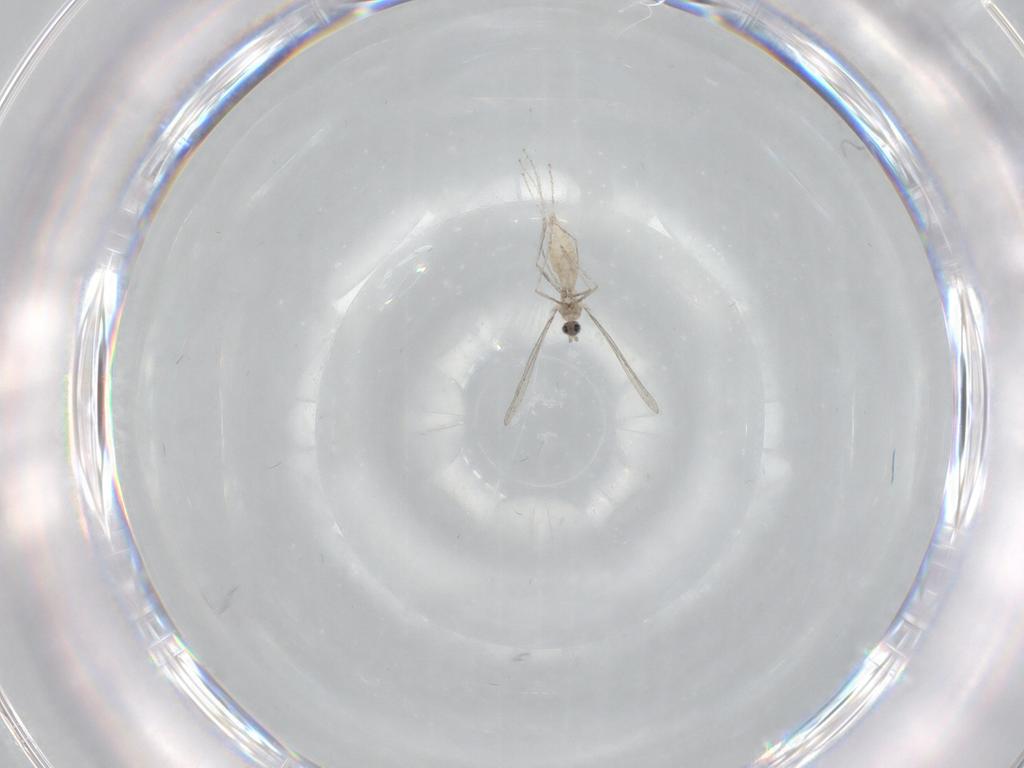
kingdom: Animalia
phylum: Arthropoda
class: Insecta
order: Diptera
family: Cecidomyiidae
